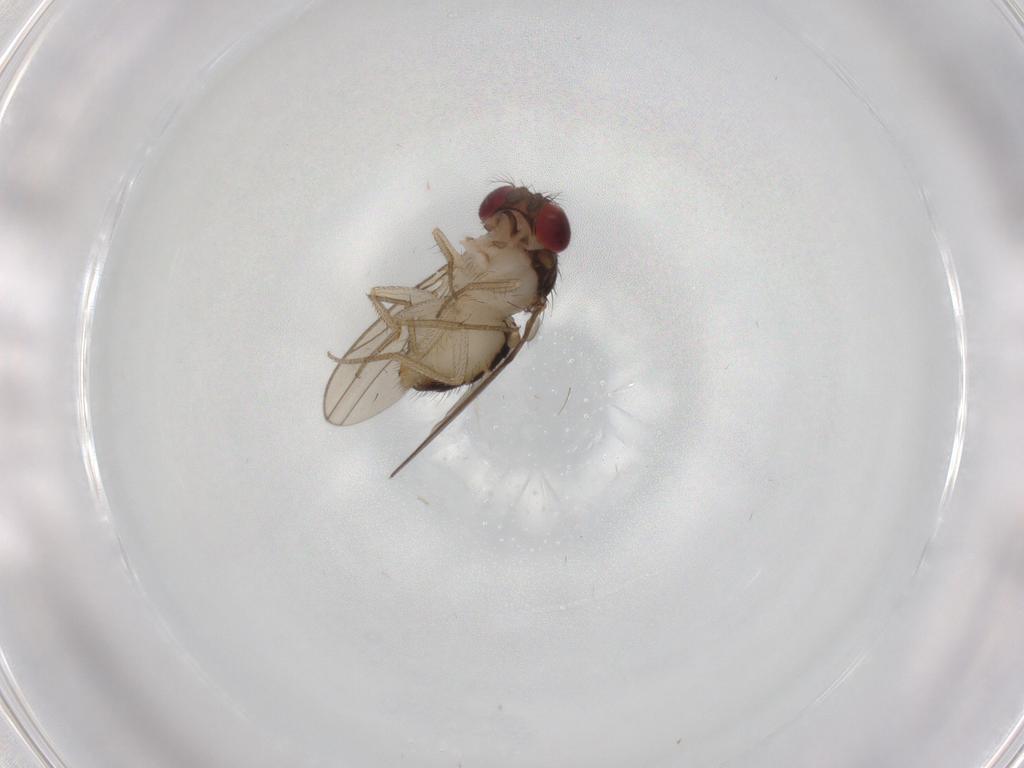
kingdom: Animalia
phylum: Arthropoda
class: Insecta
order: Diptera
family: Drosophilidae
